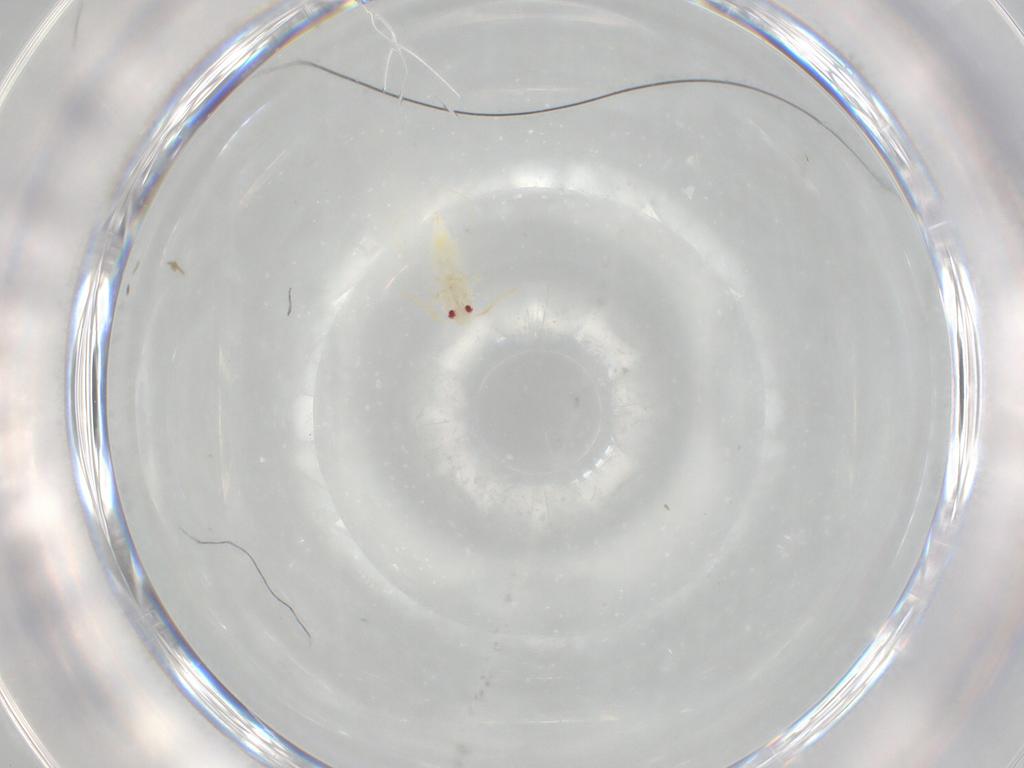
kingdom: Animalia
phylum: Arthropoda
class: Insecta
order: Hemiptera
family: Aleyrodidae
